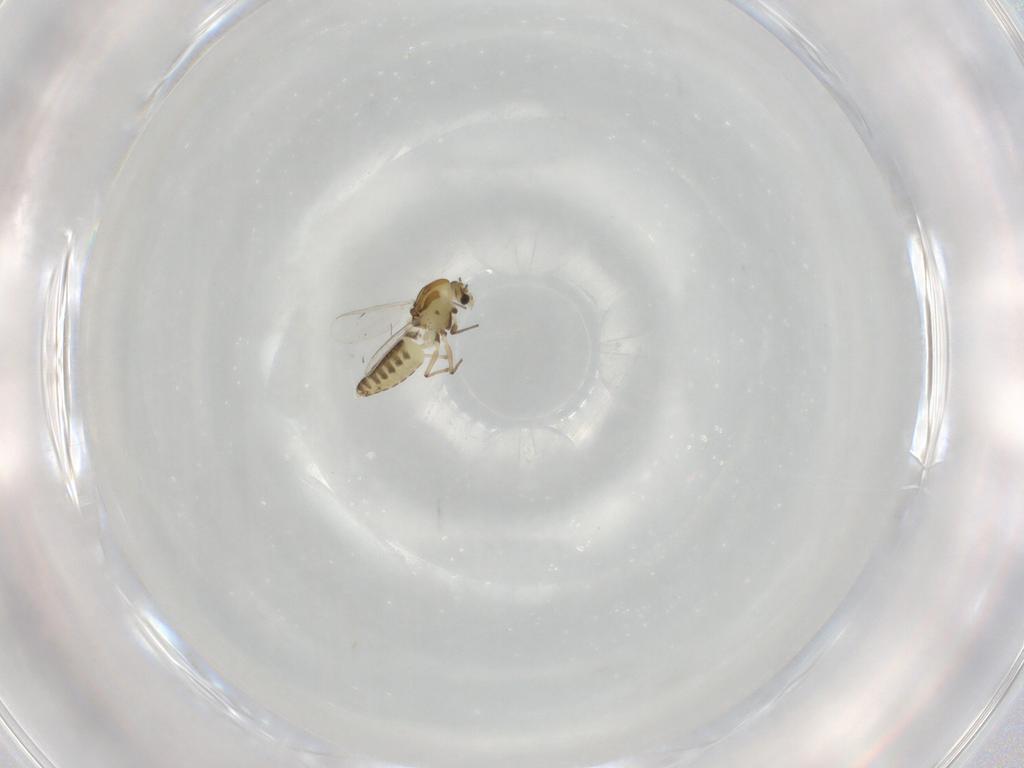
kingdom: Animalia
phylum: Arthropoda
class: Insecta
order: Diptera
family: Chironomidae
